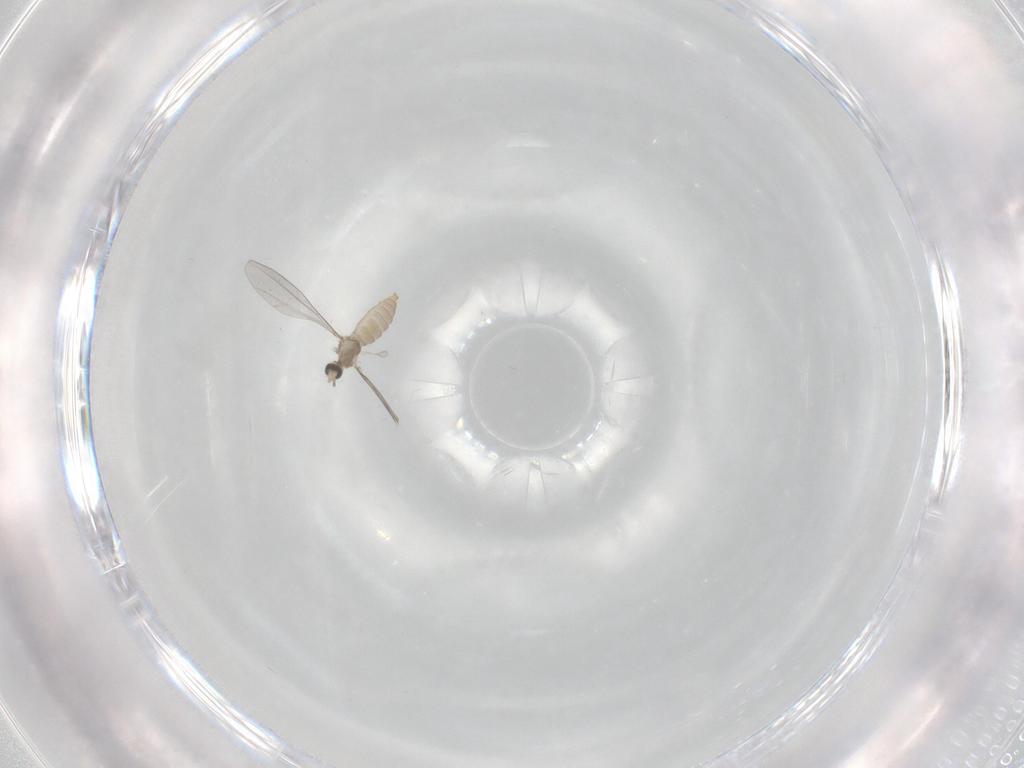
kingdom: Animalia
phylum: Arthropoda
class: Insecta
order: Diptera
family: Cecidomyiidae
